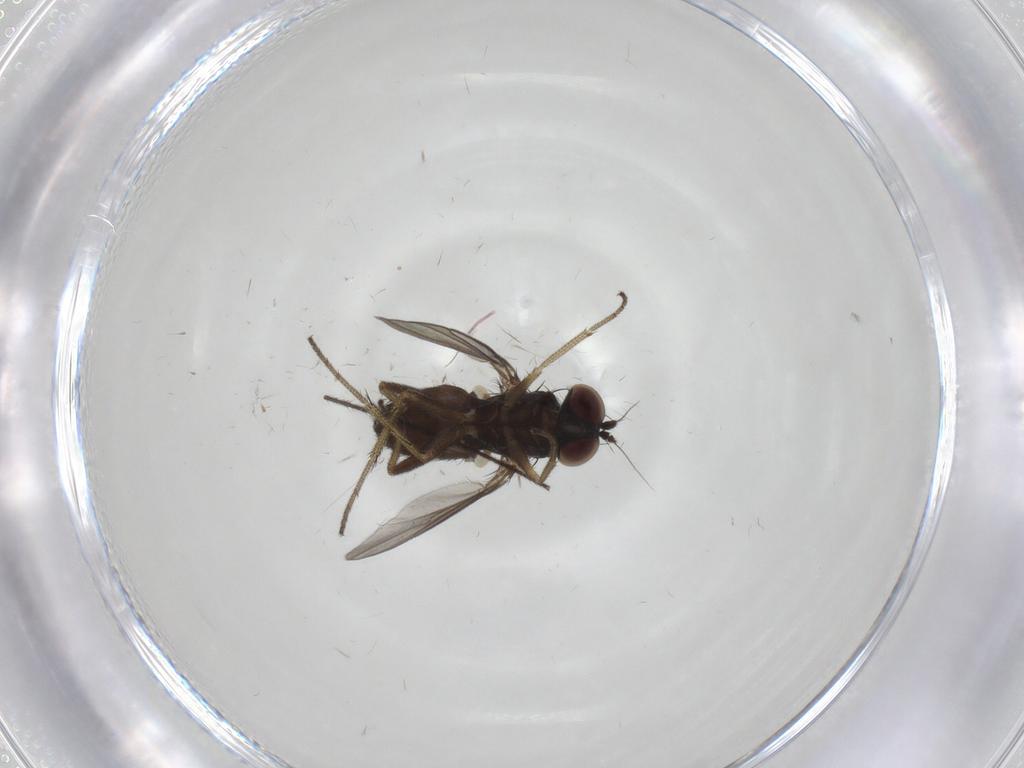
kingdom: Animalia
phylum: Arthropoda
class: Insecta
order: Diptera
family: Chironomidae
